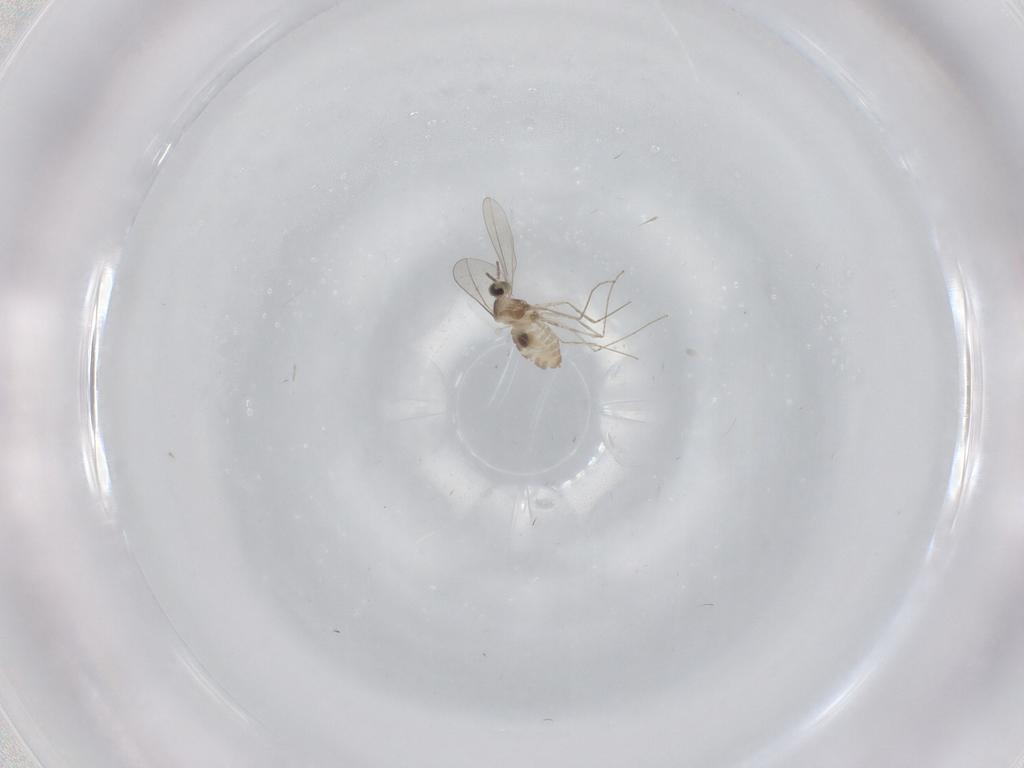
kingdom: Animalia
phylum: Arthropoda
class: Insecta
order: Diptera
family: Cecidomyiidae
